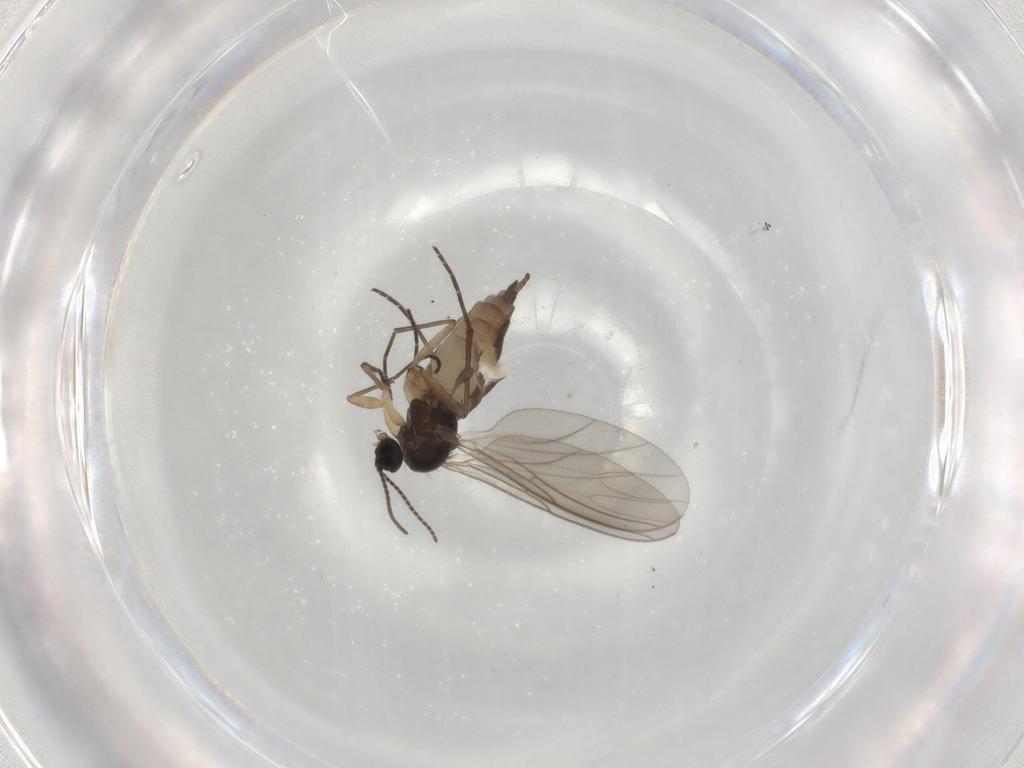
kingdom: Animalia
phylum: Arthropoda
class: Insecta
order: Diptera
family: Sciaridae
